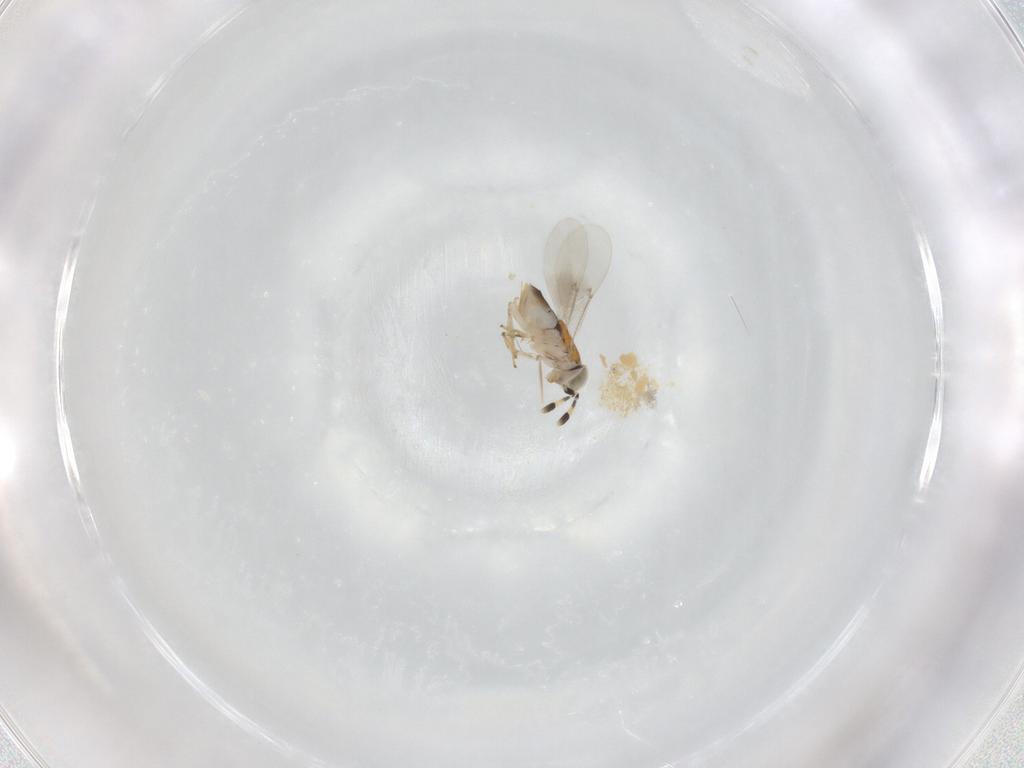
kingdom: Animalia
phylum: Arthropoda
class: Insecta
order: Diptera
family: Chironomidae
